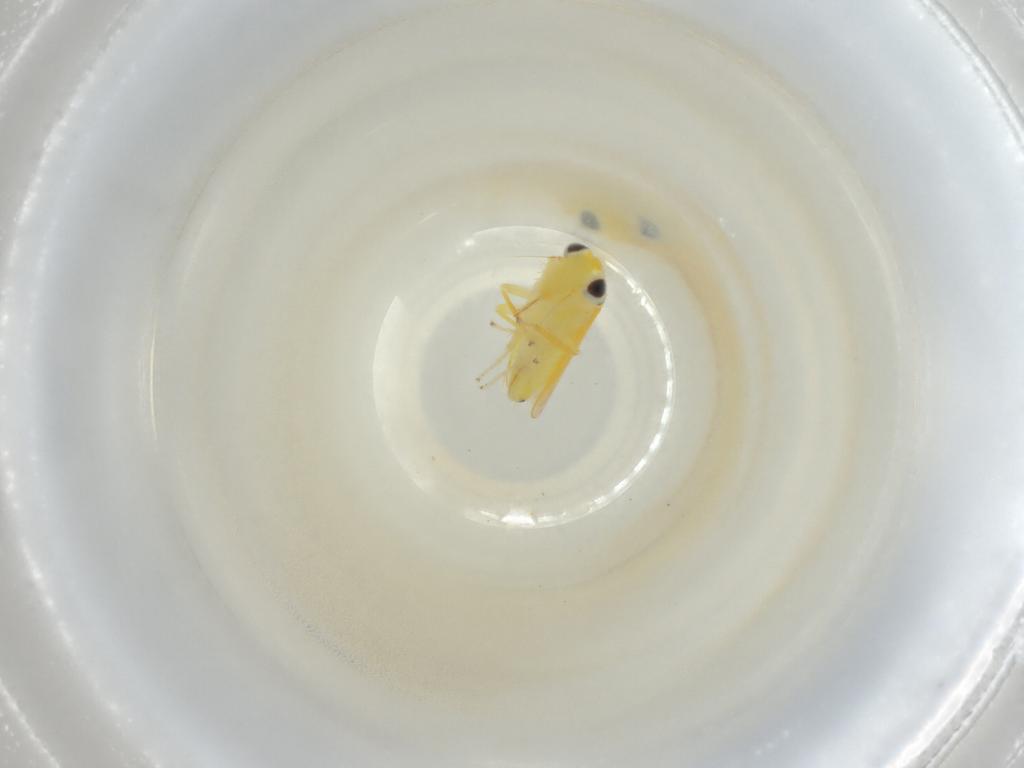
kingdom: Animalia
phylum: Arthropoda
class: Insecta
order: Hemiptera
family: Cicadellidae
